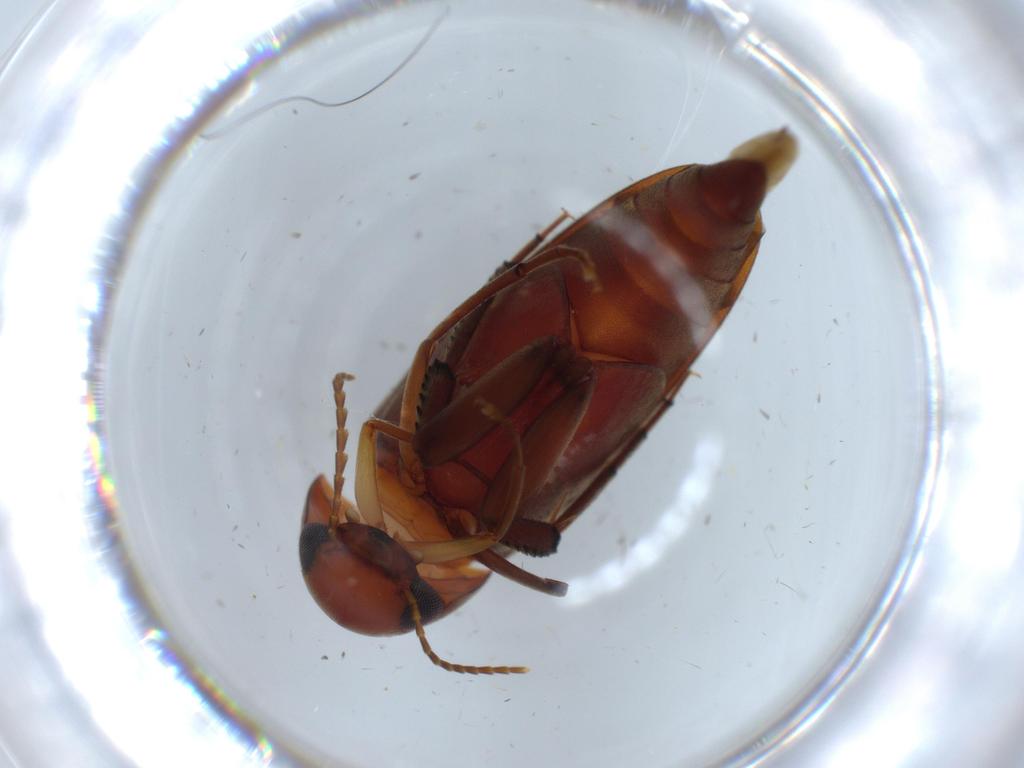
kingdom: Animalia
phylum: Arthropoda
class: Insecta
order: Coleoptera
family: Mordellidae
